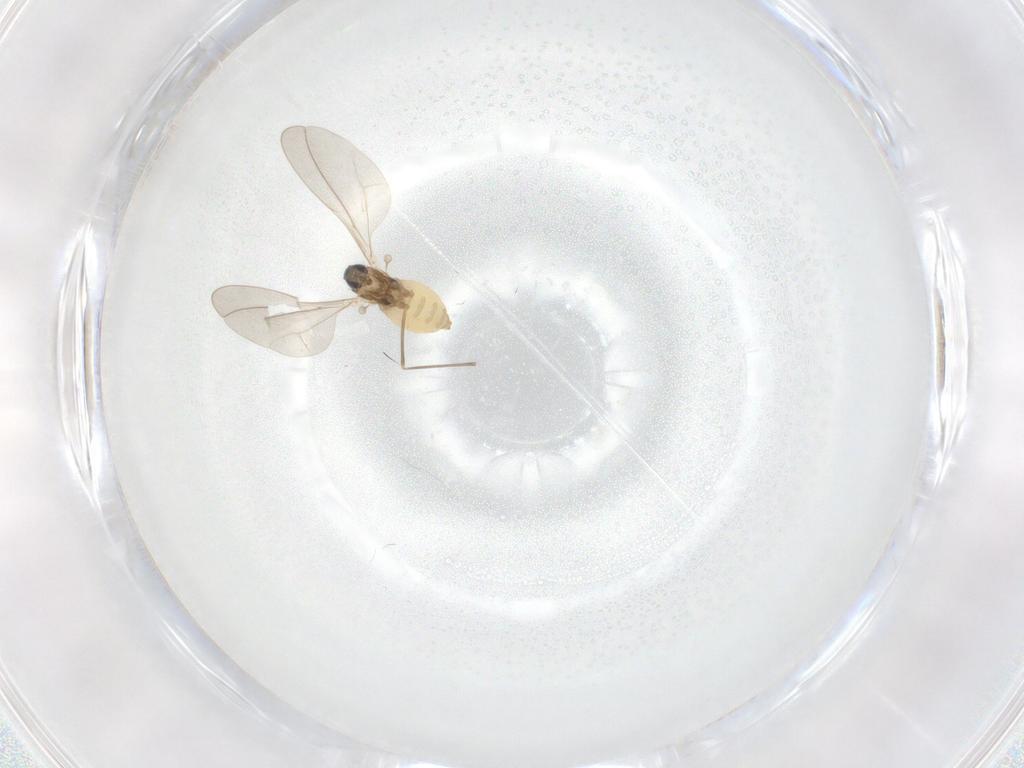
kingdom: Animalia
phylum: Arthropoda
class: Insecta
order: Diptera
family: Cecidomyiidae
